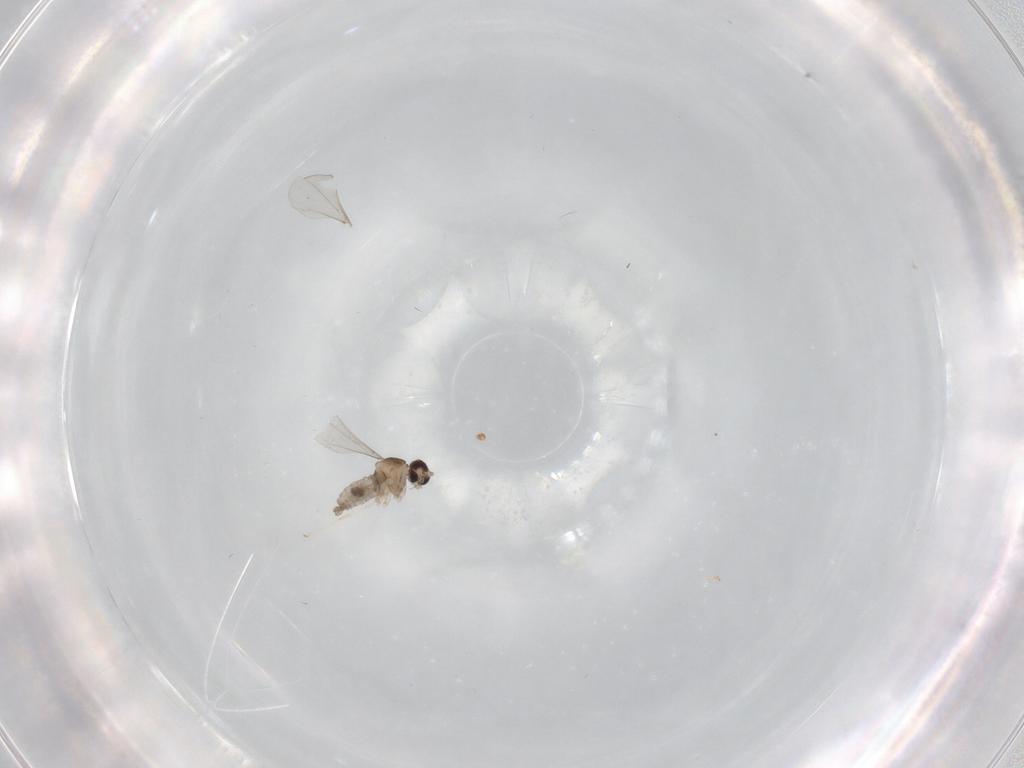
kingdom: Animalia
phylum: Arthropoda
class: Insecta
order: Diptera
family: Cecidomyiidae
